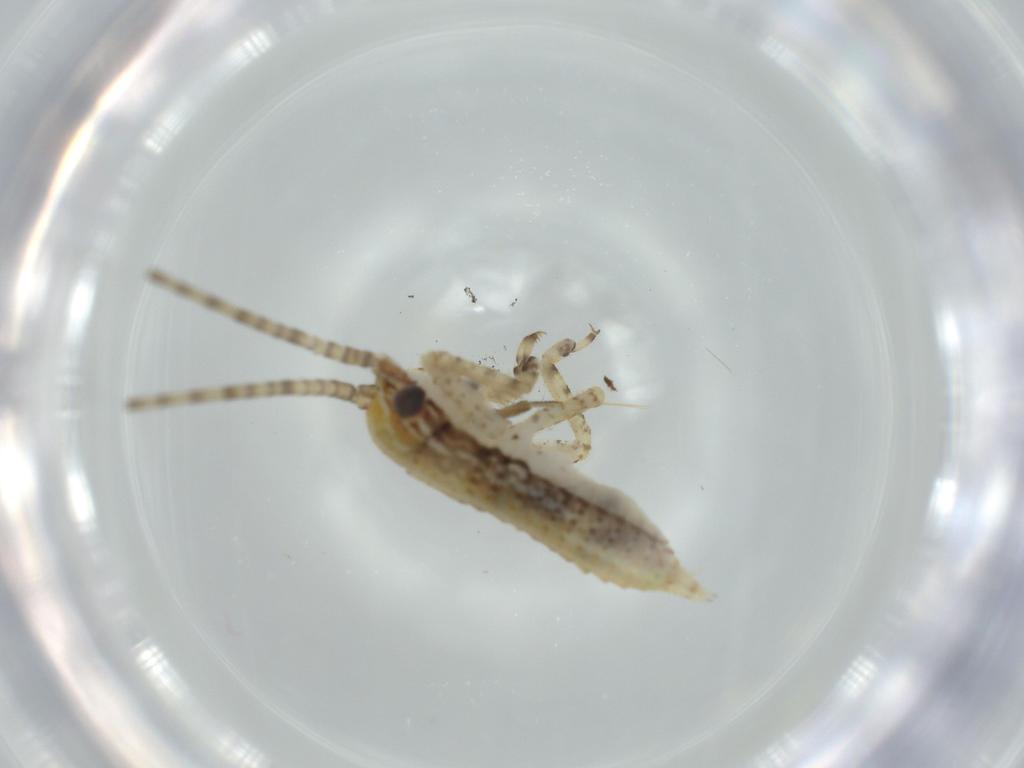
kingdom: Animalia
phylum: Arthropoda
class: Insecta
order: Orthoptera
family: Gryllidae
